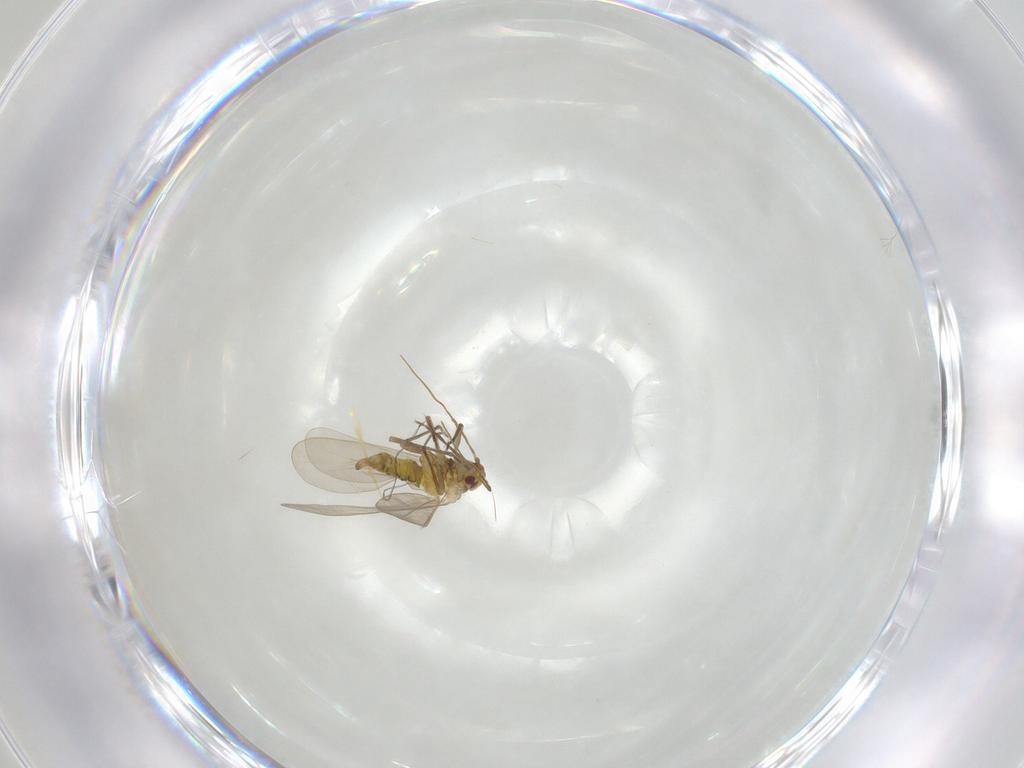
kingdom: Animalia
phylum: Arthropoda
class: Insecta
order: Hemiptera
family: Aleyrodidae
